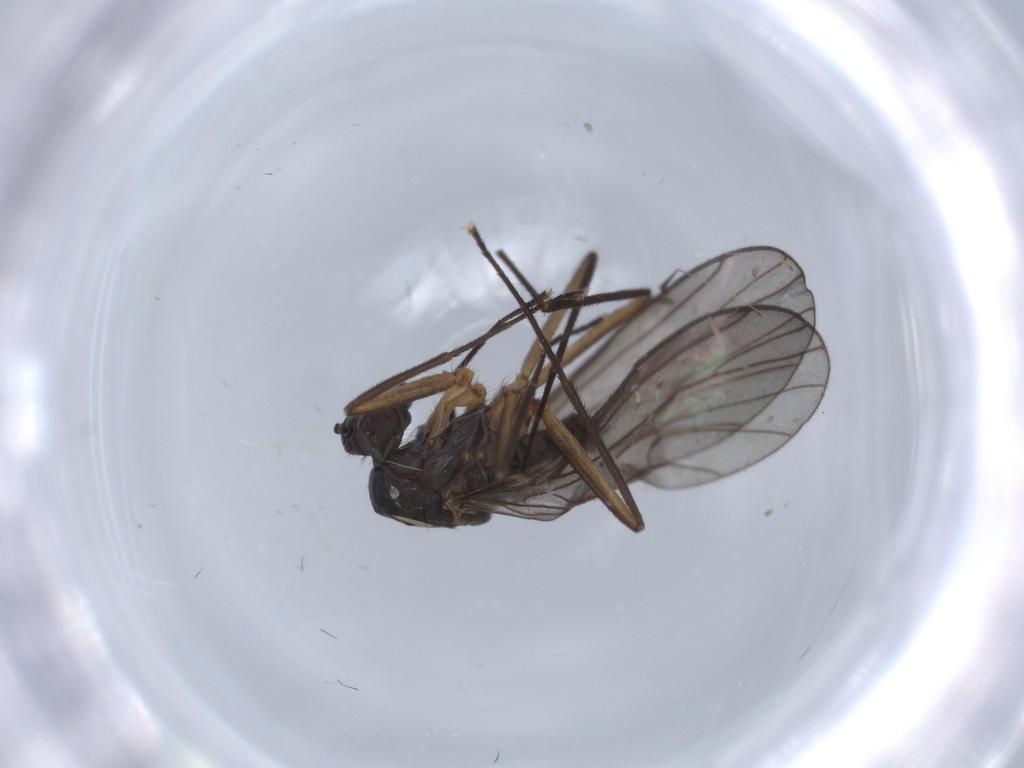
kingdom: Animalia
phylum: Arthropoda
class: Insecta
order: Diptera
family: Empididae
